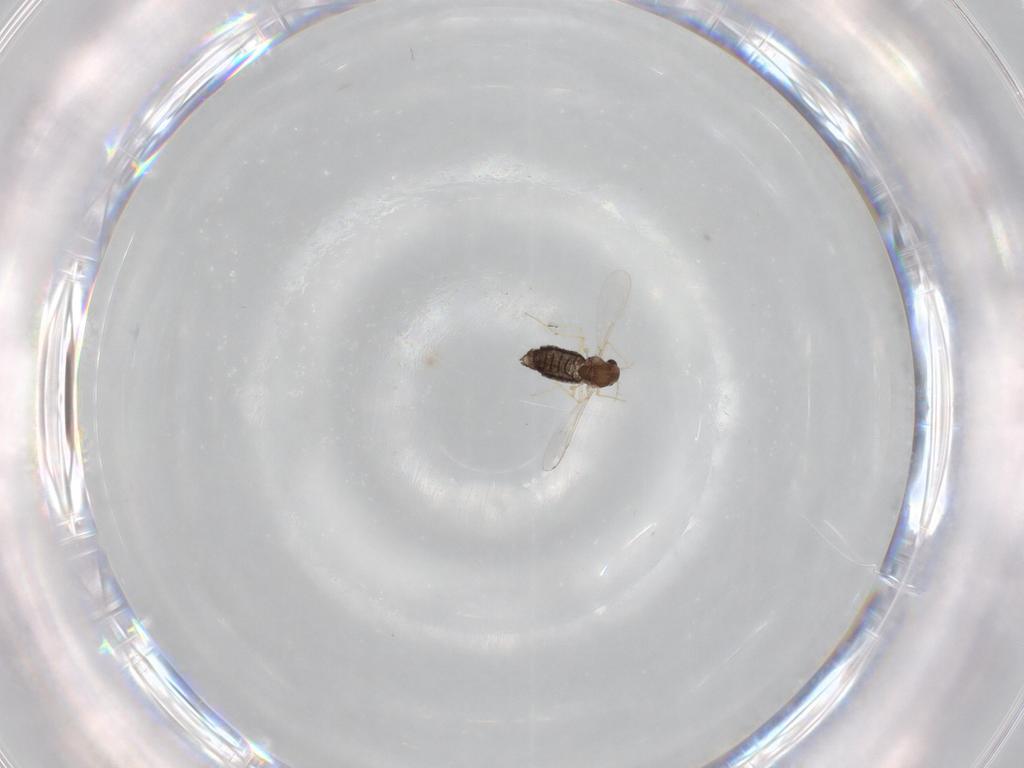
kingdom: Animalia
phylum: Arthropoda
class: Insecta
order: Diptera
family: Chironomidae
